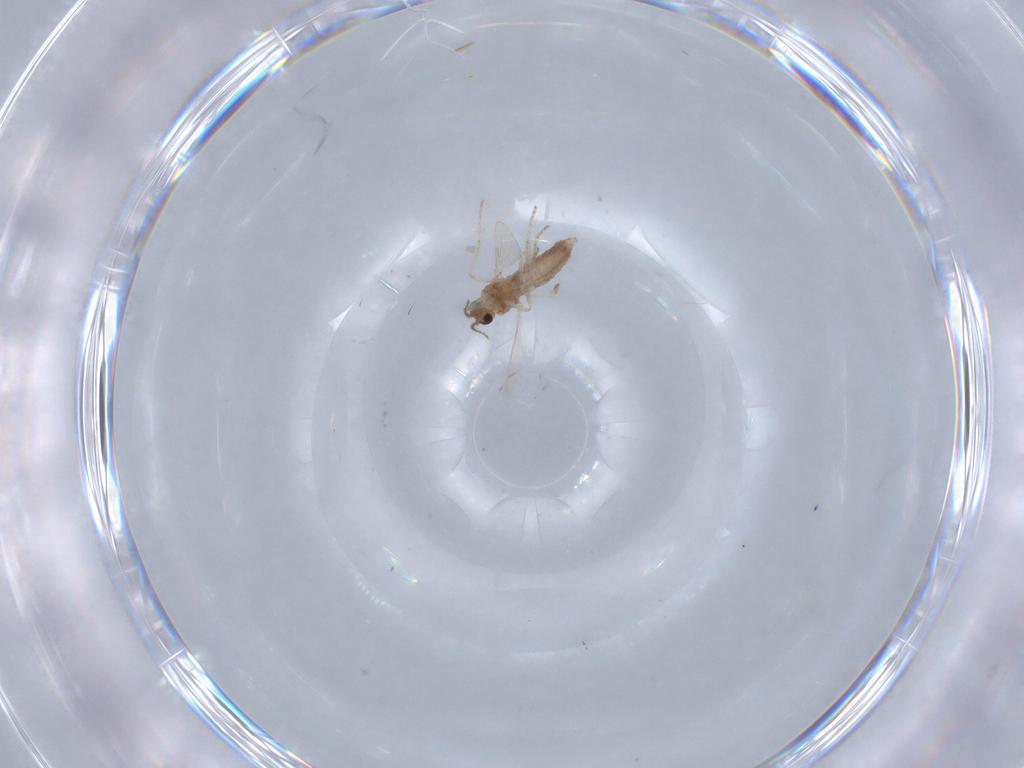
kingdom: Animalia
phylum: Arthropoda
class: Insecta
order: Diptera
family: Ceratopogonidae
